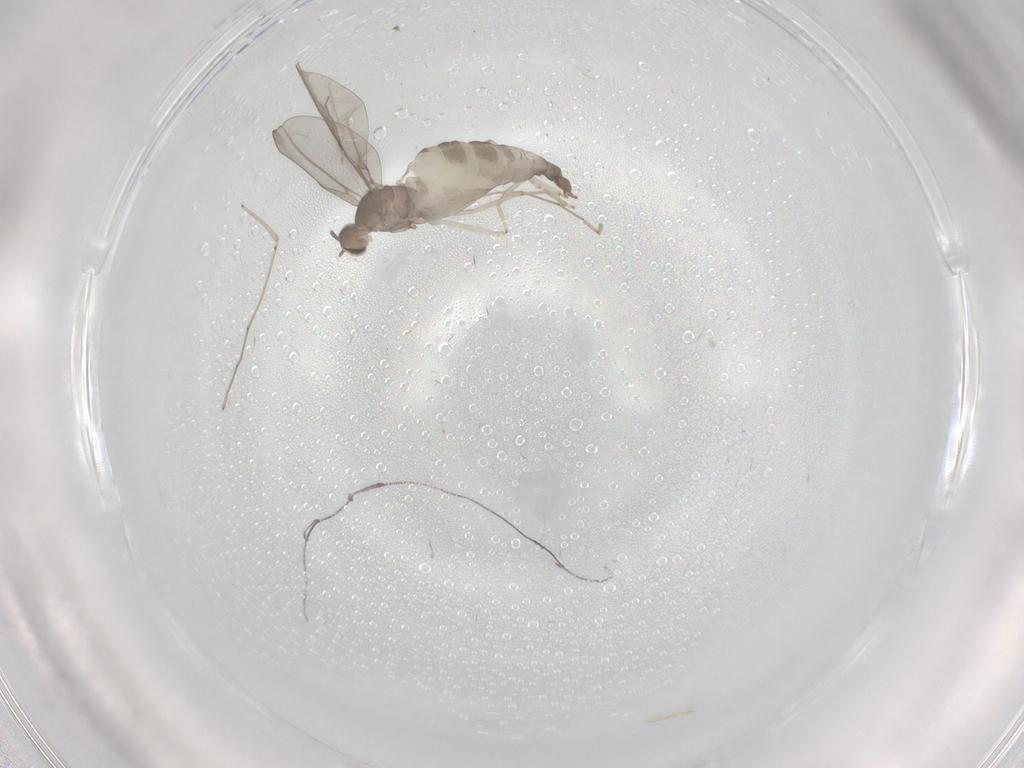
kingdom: Animalia
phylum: Arthropoda
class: Insecta
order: Diptera
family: Cecidomyiidae
